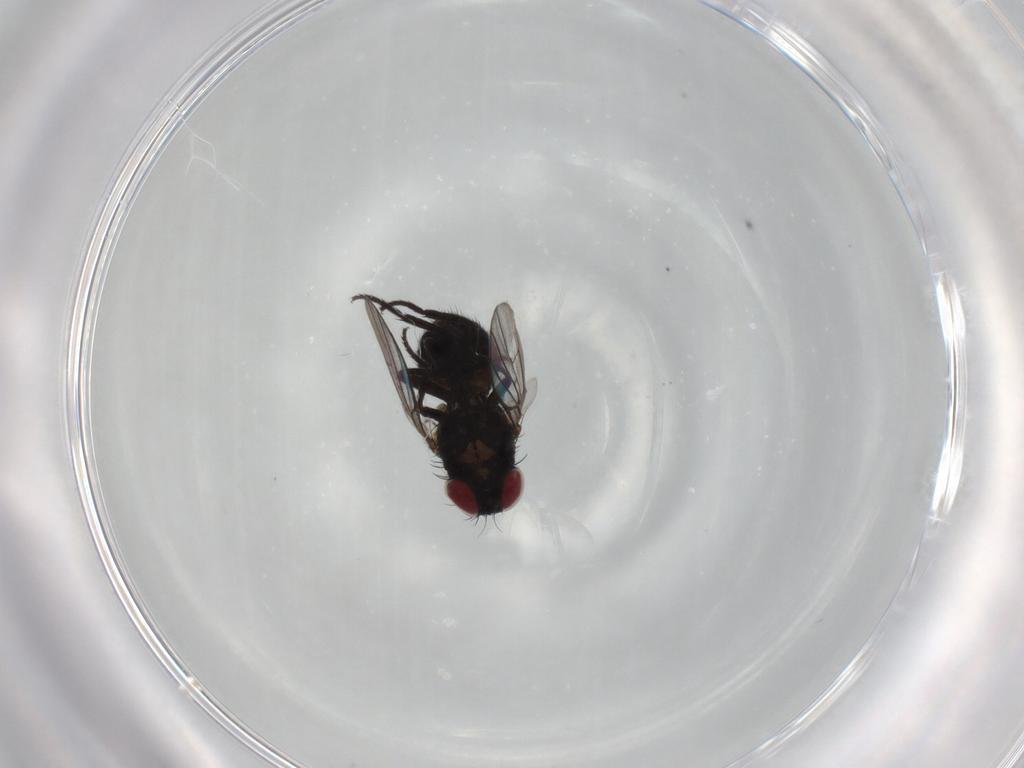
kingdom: Animalia
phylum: Arthropoda
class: Insecta
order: Diptera
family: Agromyzidae
